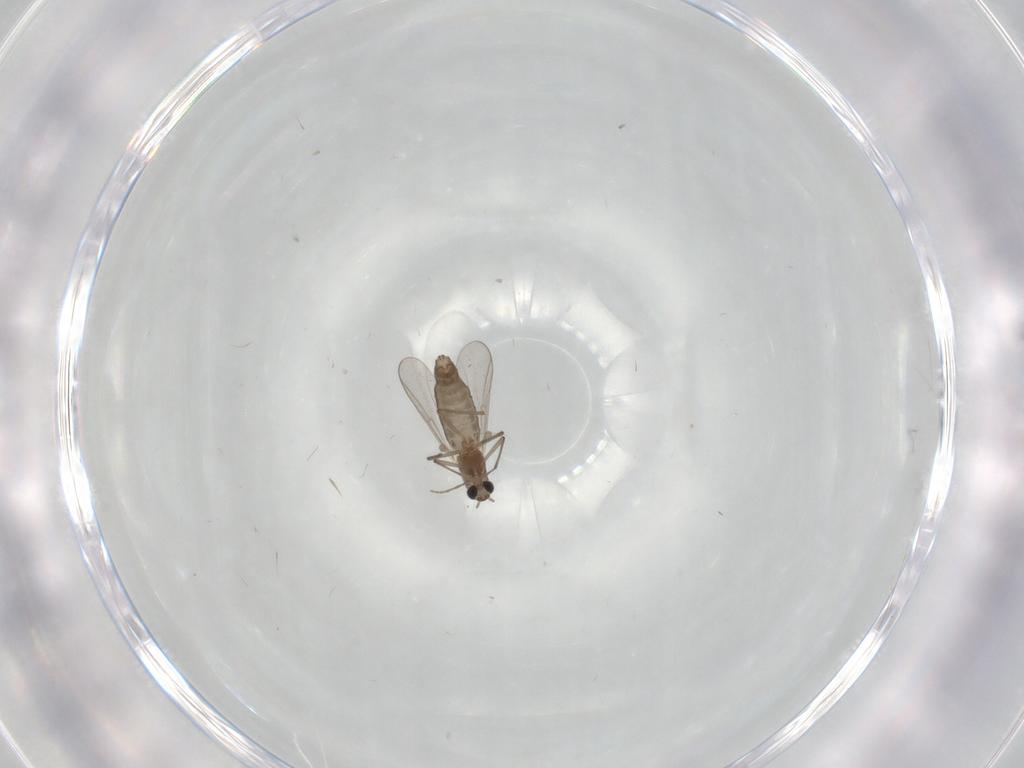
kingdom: Animalia
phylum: Arthropoda
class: Insecta
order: Diptera
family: Chironomidae
